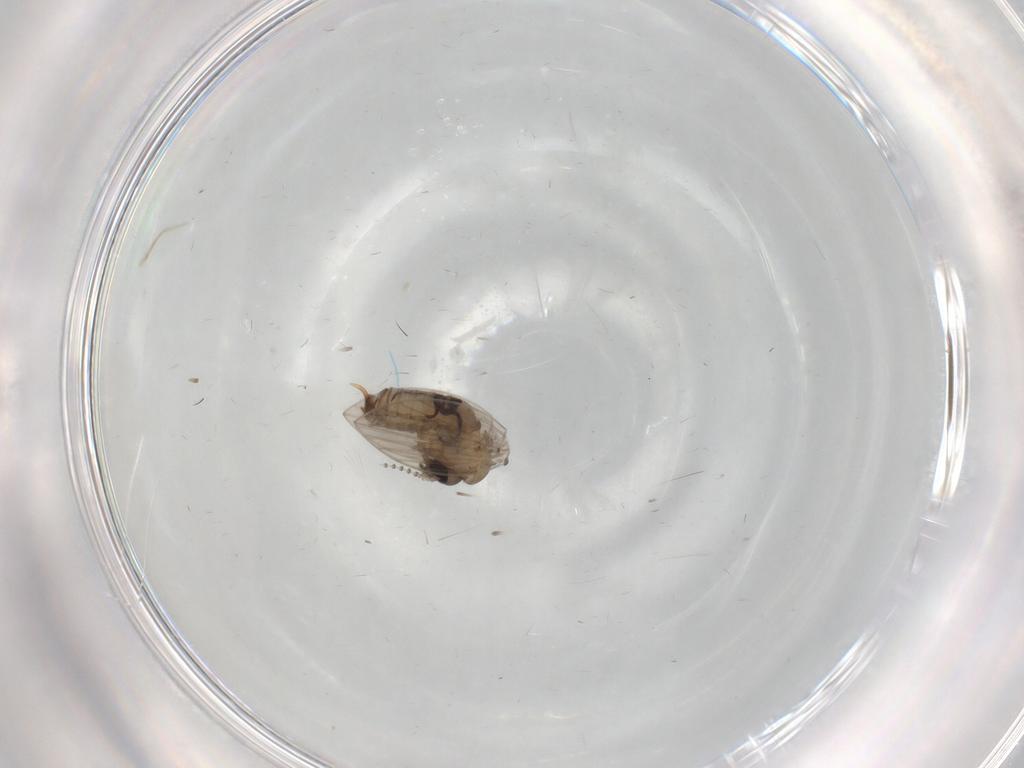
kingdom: Animalia
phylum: Arthropoda
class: Insecta
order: Diptera
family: Psychodidae
